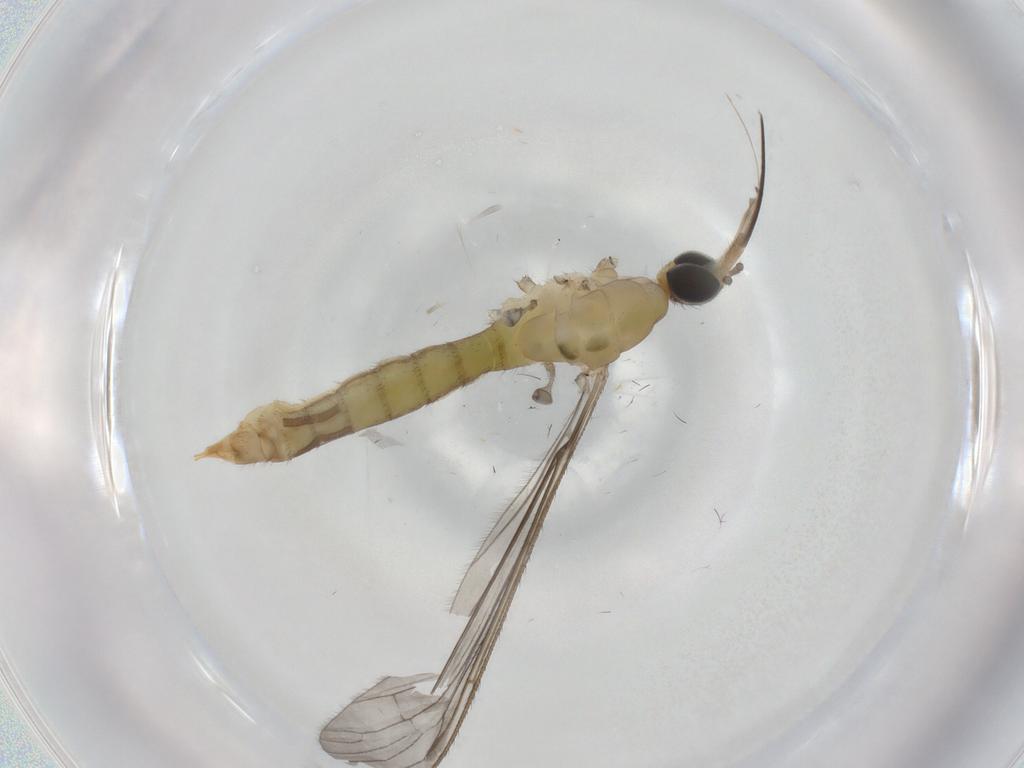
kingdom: Animalia
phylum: Arthropoda
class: Insecta
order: Diptera
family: Limoniidae
